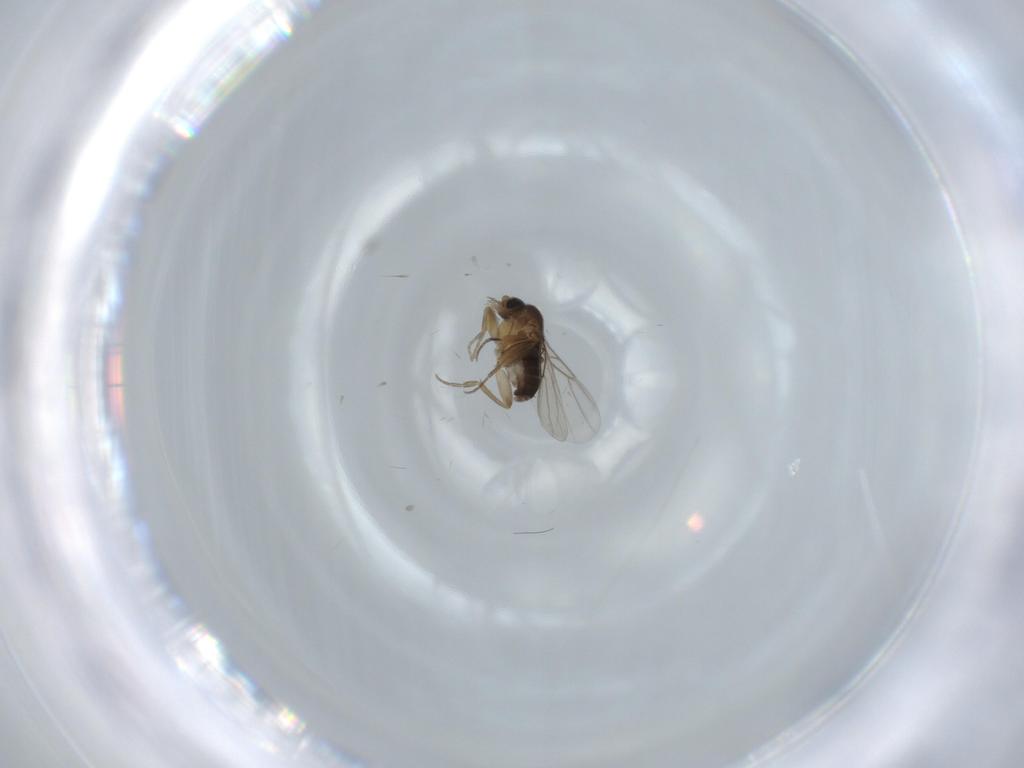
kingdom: Animalia
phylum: Arthropoda
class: Insecta
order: Diptera
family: Phoridae
